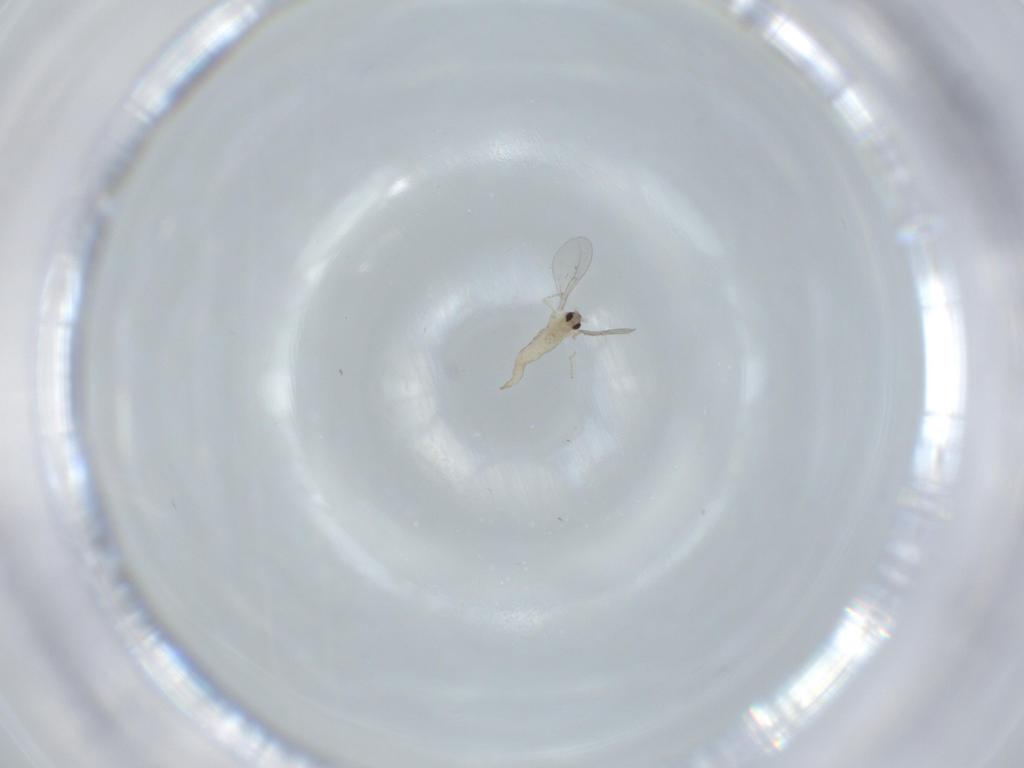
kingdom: Animalia
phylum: Arthropoda
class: Insecta
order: Diptera
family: Cecidomyiidae
